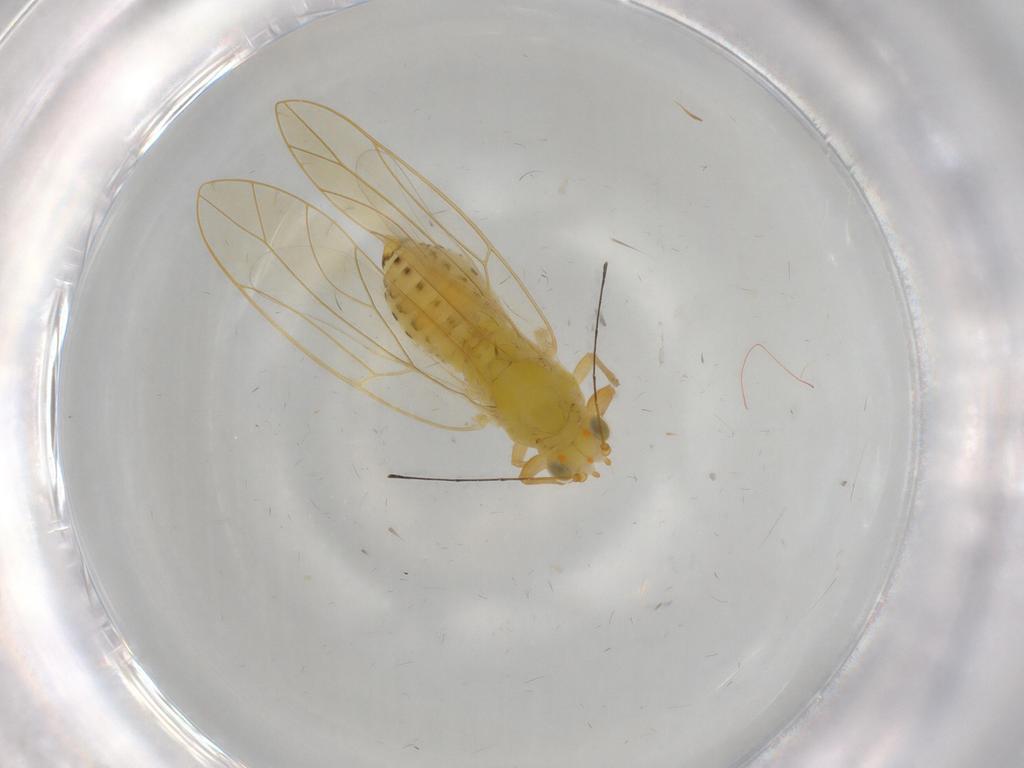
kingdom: Animalia
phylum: Arthropoda
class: Insecta
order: Hemiptera
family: Triozidae
